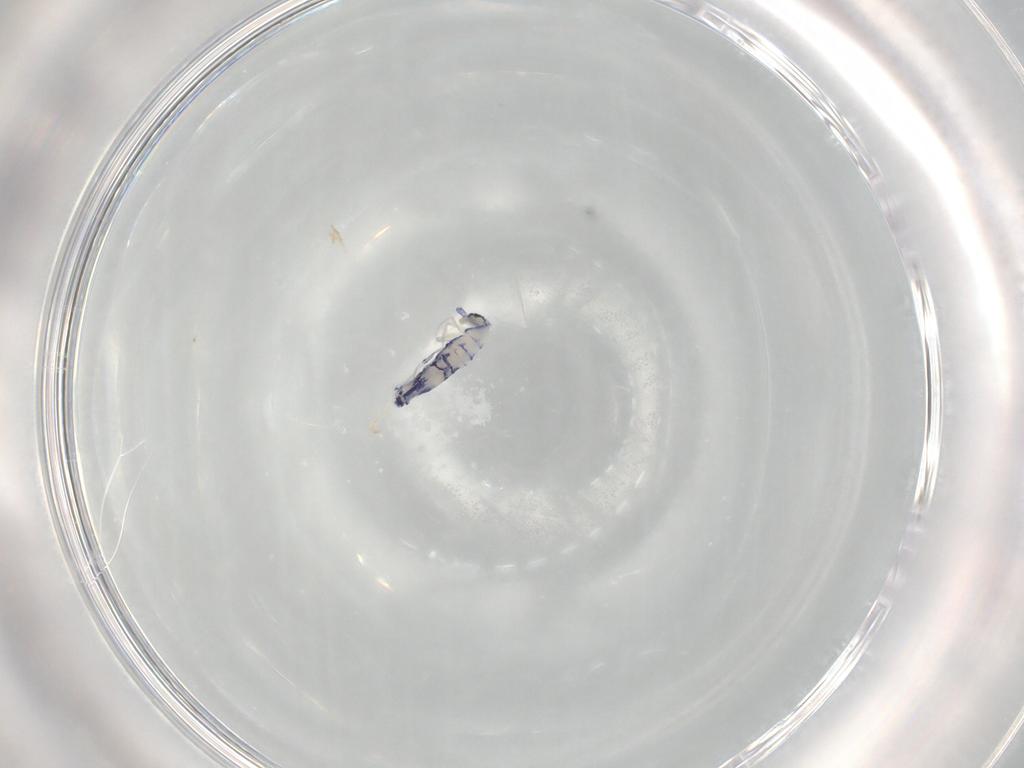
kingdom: Animalia
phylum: Arthropoda
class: Collembola
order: Entomobryomorpha
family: Entomobryidae
